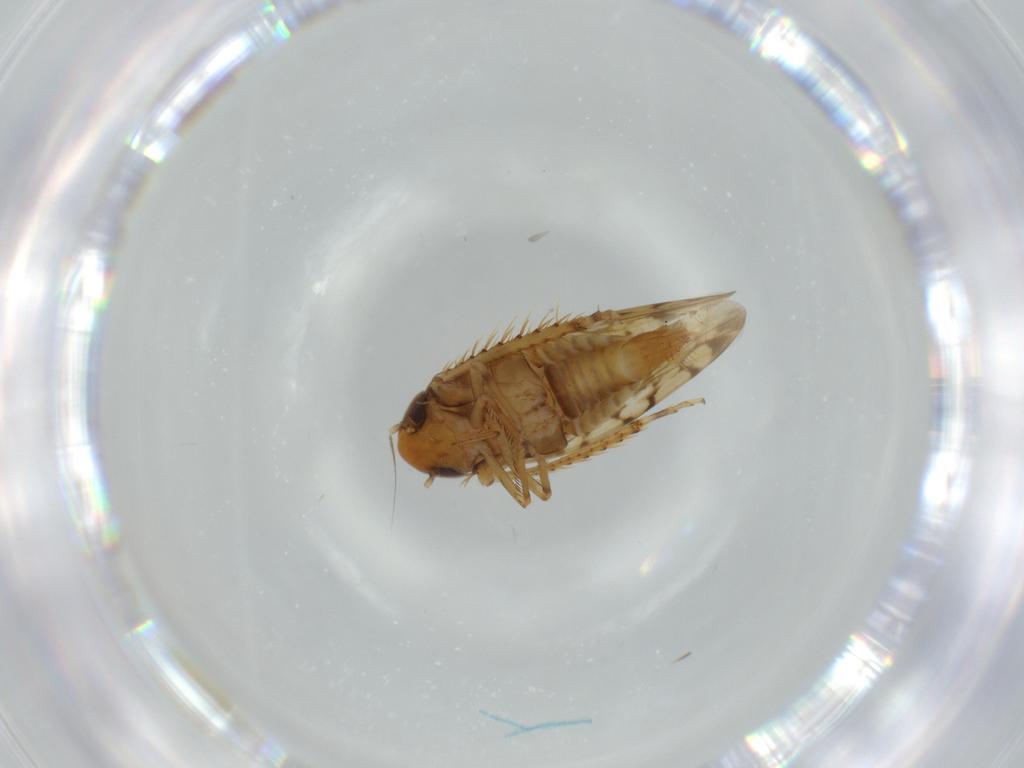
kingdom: Animalia
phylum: Arthropoda
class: Insecta
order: Hemiptera
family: Cicadellidae
